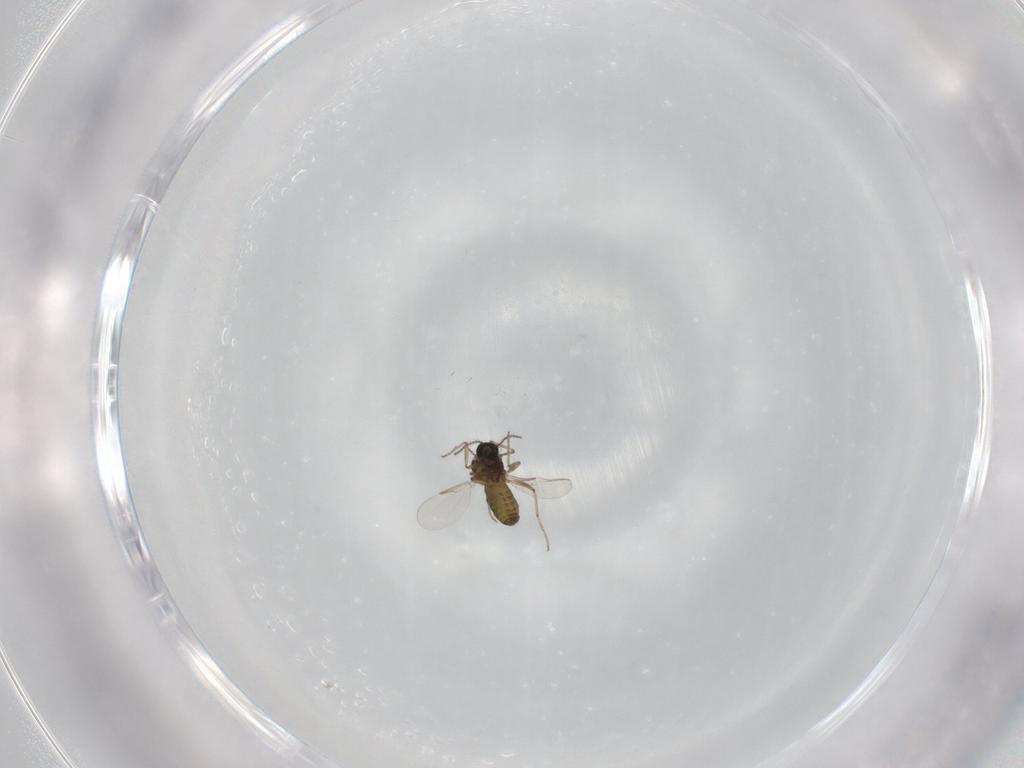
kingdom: Animalia
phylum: Arthropoda
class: Insecta
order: Diptera
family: Ceratopogonidae
